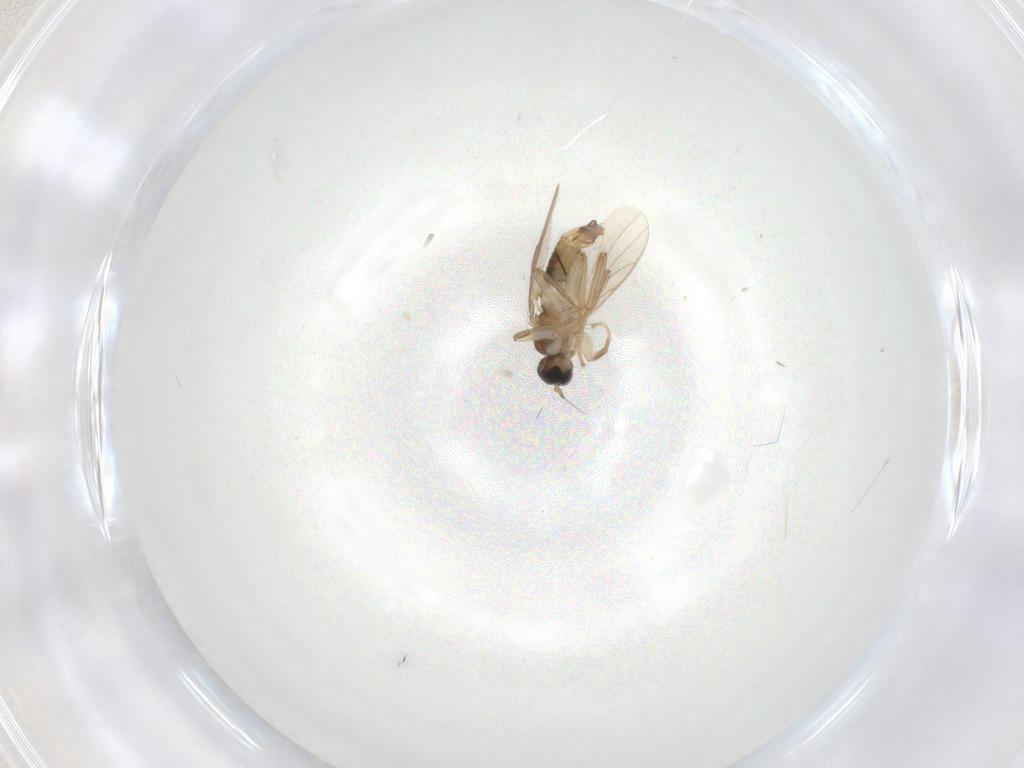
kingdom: Animalia
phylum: Arthropoda
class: Insecta
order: Diptera
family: Hybotidae
